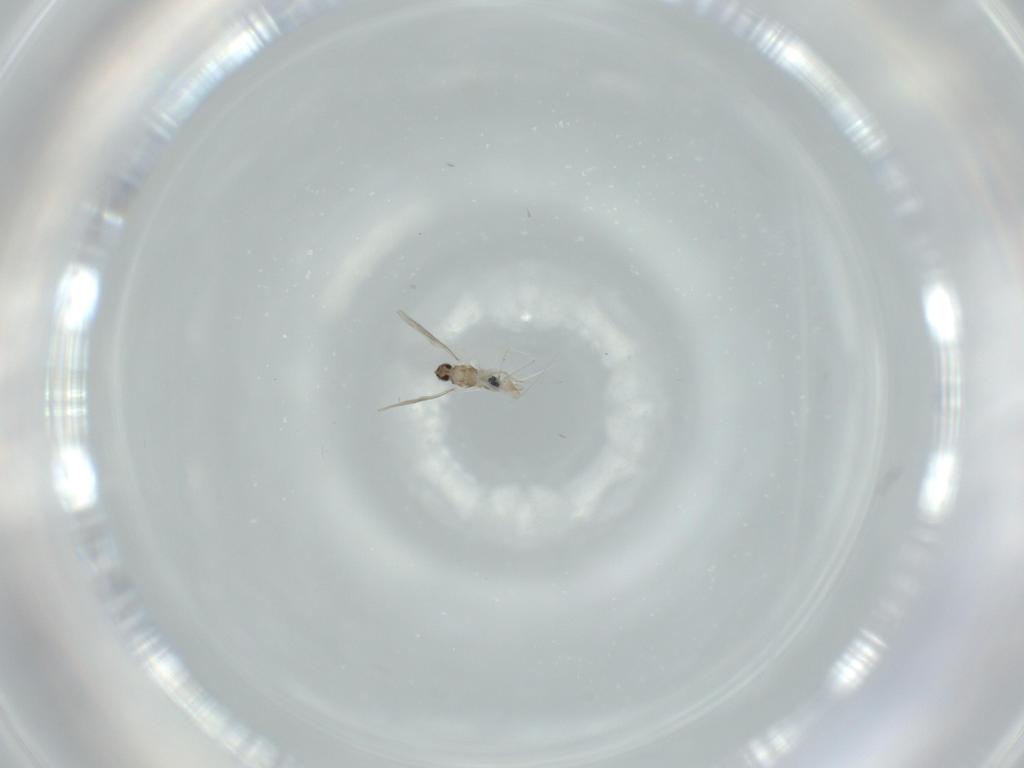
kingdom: Animalia
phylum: Arthropoda
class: Insecta
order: Diptera
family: Cecidomyiidae
